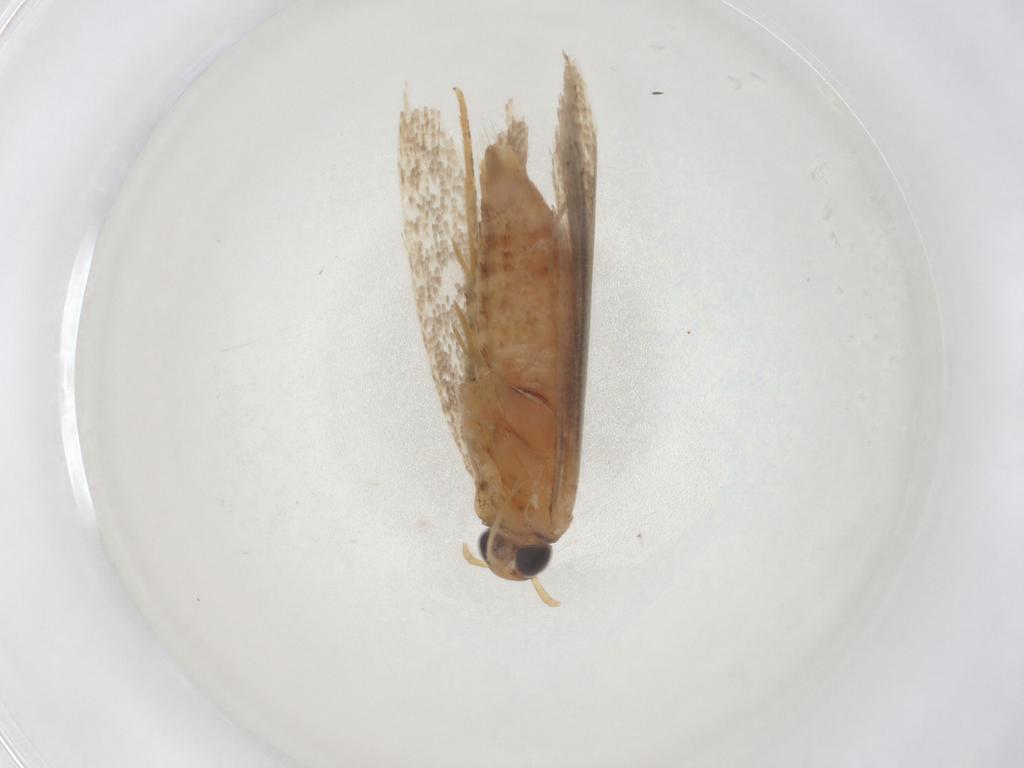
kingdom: Animalia
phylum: Arthropoda
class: Insecta
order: Lepidoptera
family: Gelechiidae
